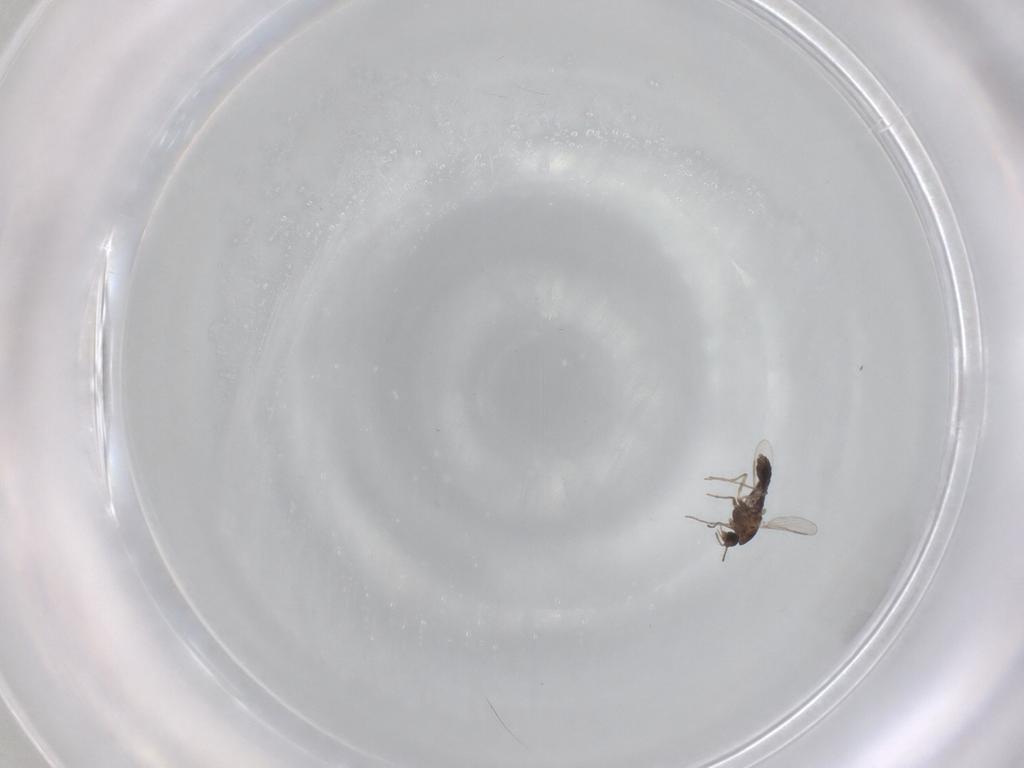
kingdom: Animalia
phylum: Arthropoda
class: Insecta
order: Diptera
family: Chironomidae
